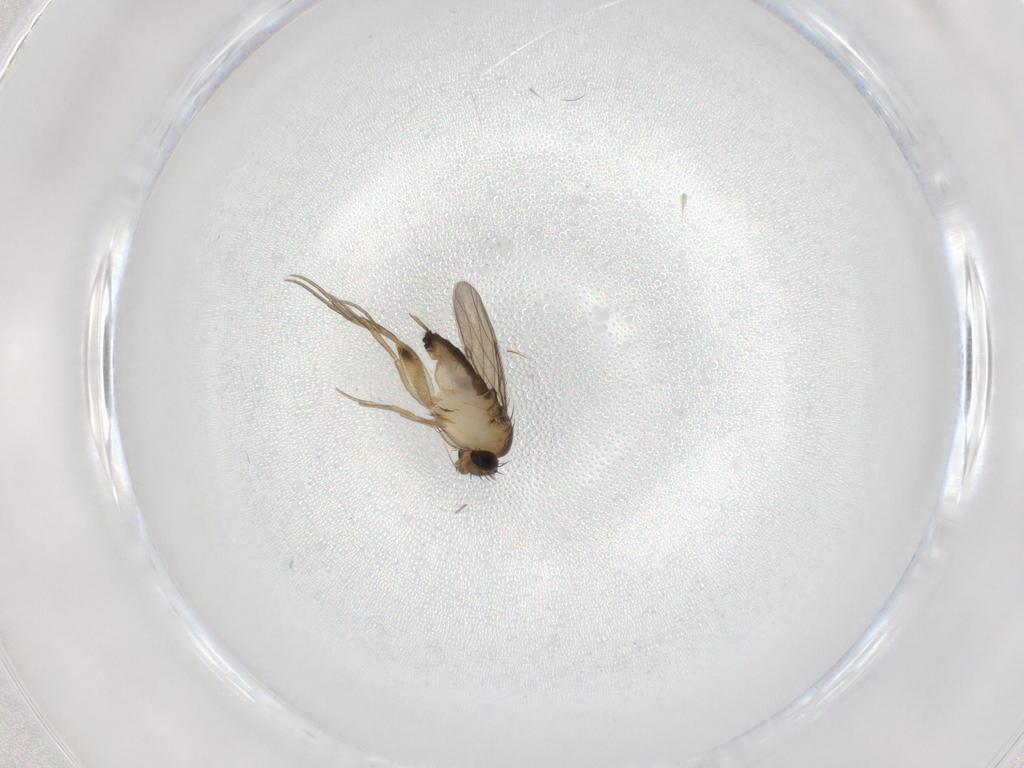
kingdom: Animalia
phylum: Arthropoda
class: Insecta
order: Diptera
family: Phoridae
